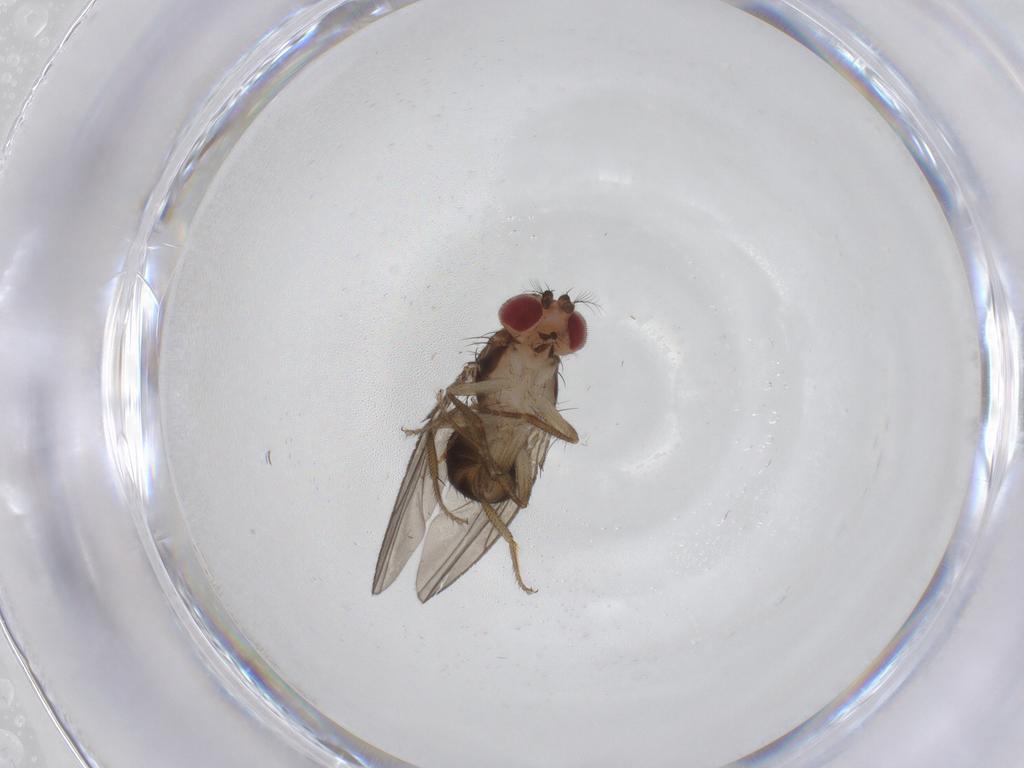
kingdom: Animalia
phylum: Arthropoda
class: Insecta
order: Diptera
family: Drosophilidae
